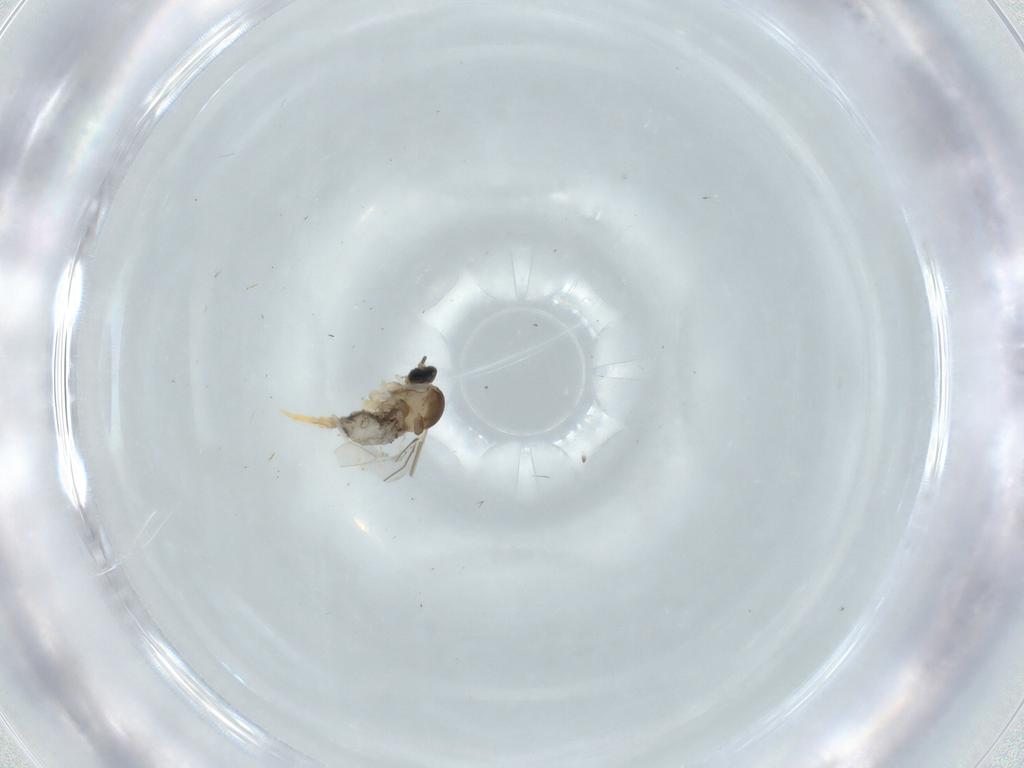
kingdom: Animalia
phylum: Arthropoda
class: Insecta
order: Diptera
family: Cecidomyiidae
